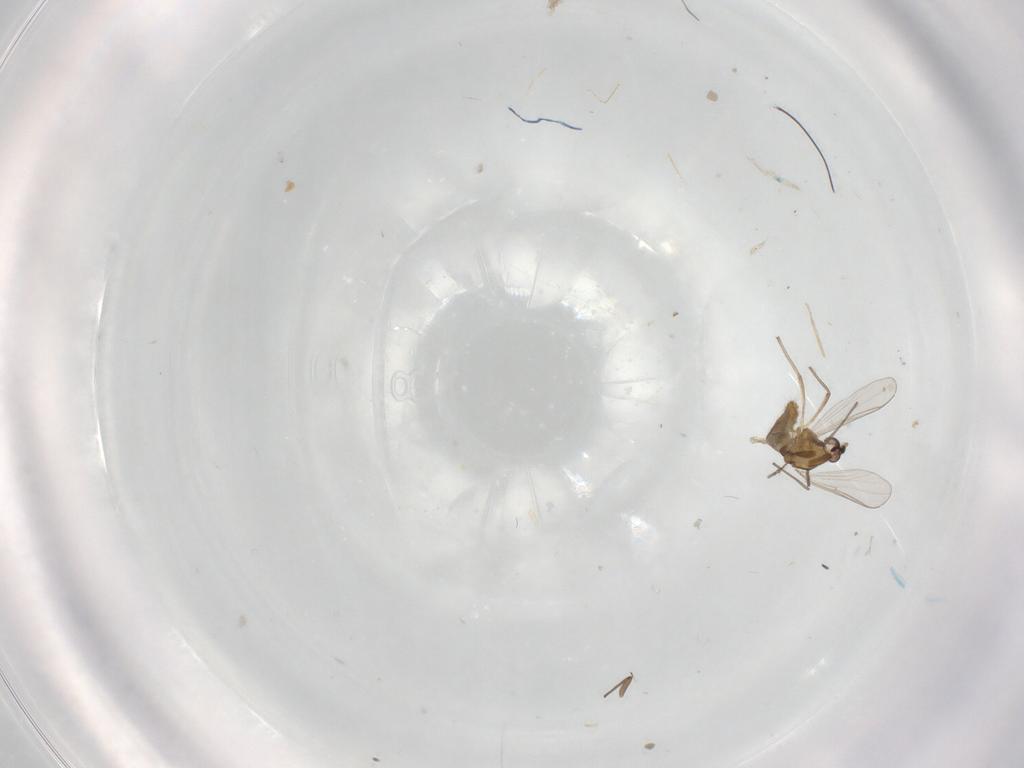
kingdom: Animalia
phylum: Arthropoda
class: Insecta
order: Diptera
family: Chironomidae
